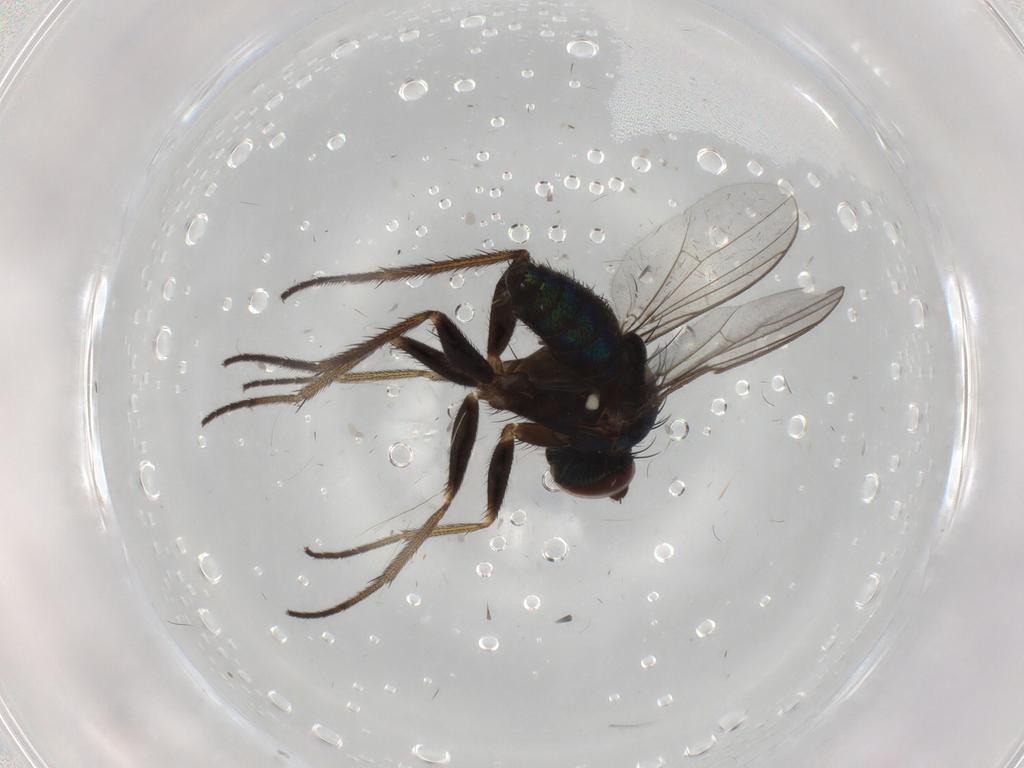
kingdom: Animalia
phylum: Arthropoda
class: Insecta
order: Diptera
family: Dolichopodidae
